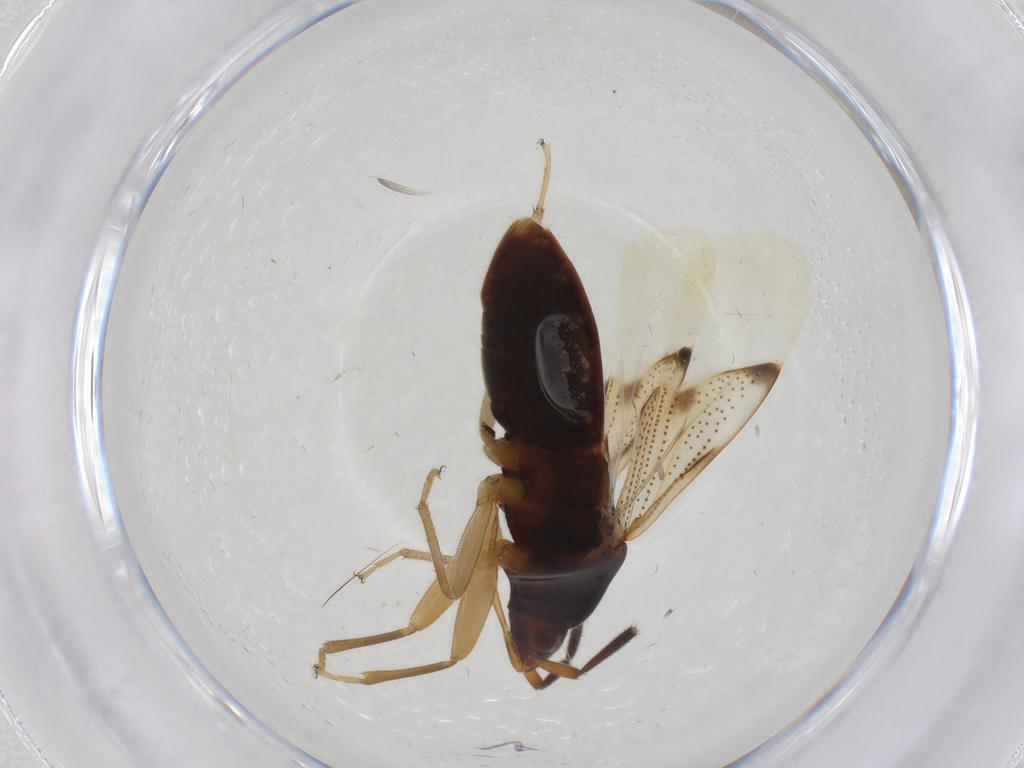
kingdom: Animalia
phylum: Arthropoda
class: Insecta
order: Hemiptera
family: Rhyparochromidae
